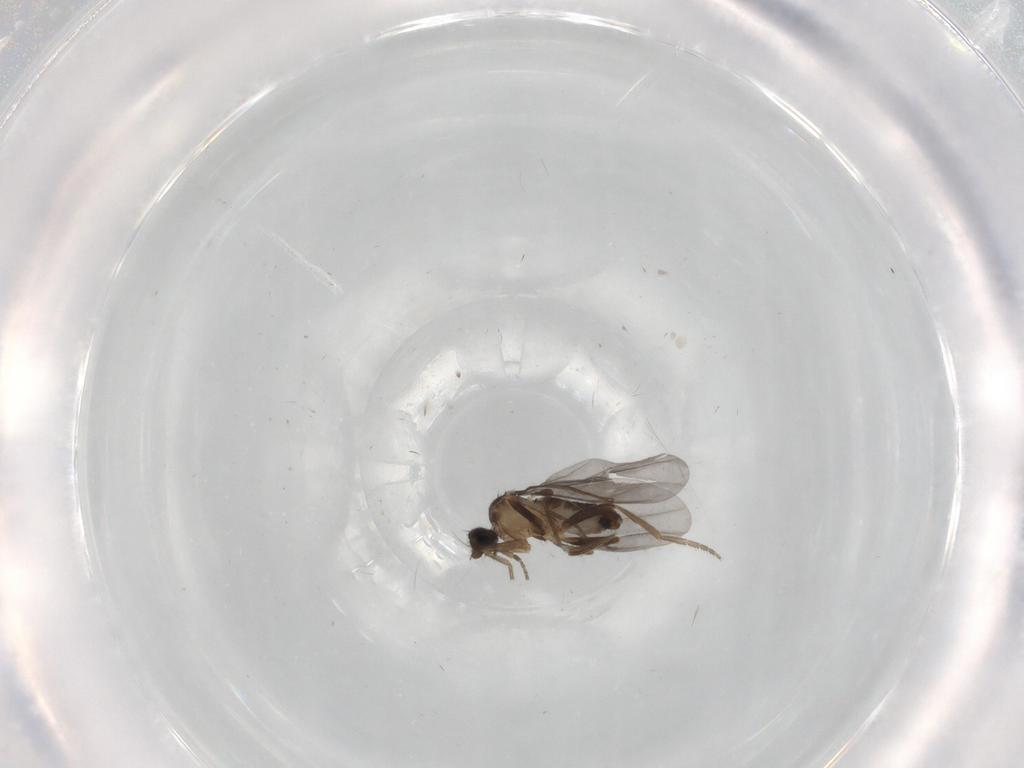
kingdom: Animalia
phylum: Arthropoda
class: Insecta
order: Diptera
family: Phoridae
